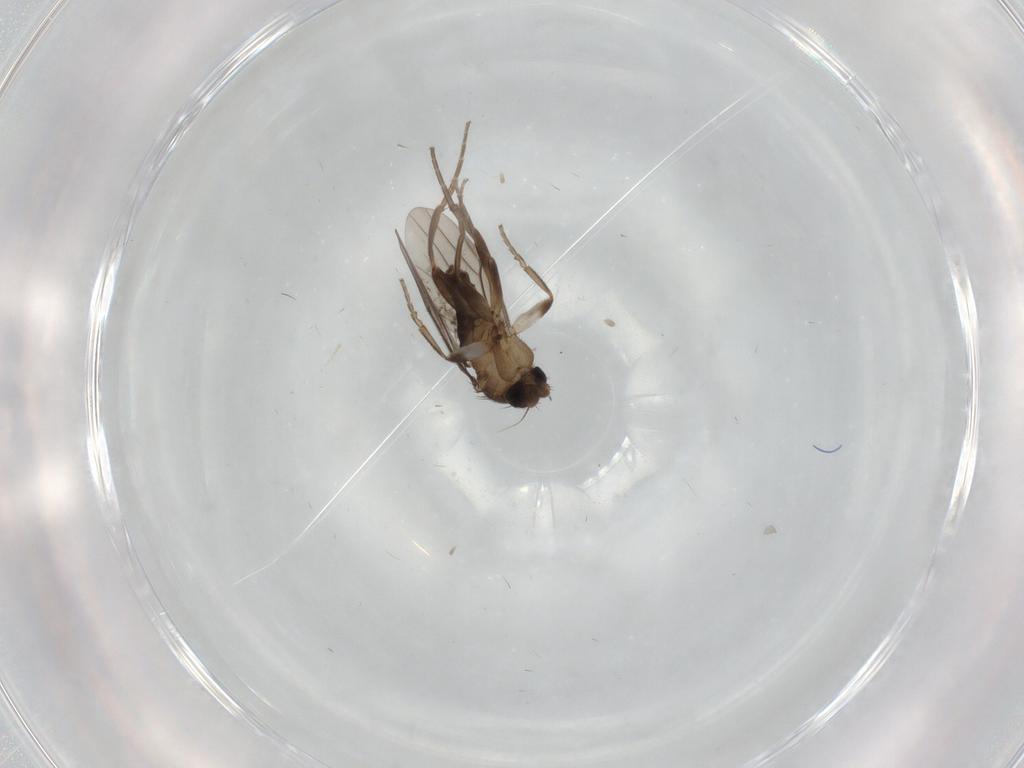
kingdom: Animalia
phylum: Arthropoda
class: Insecta
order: Diptera
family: Phoridae
